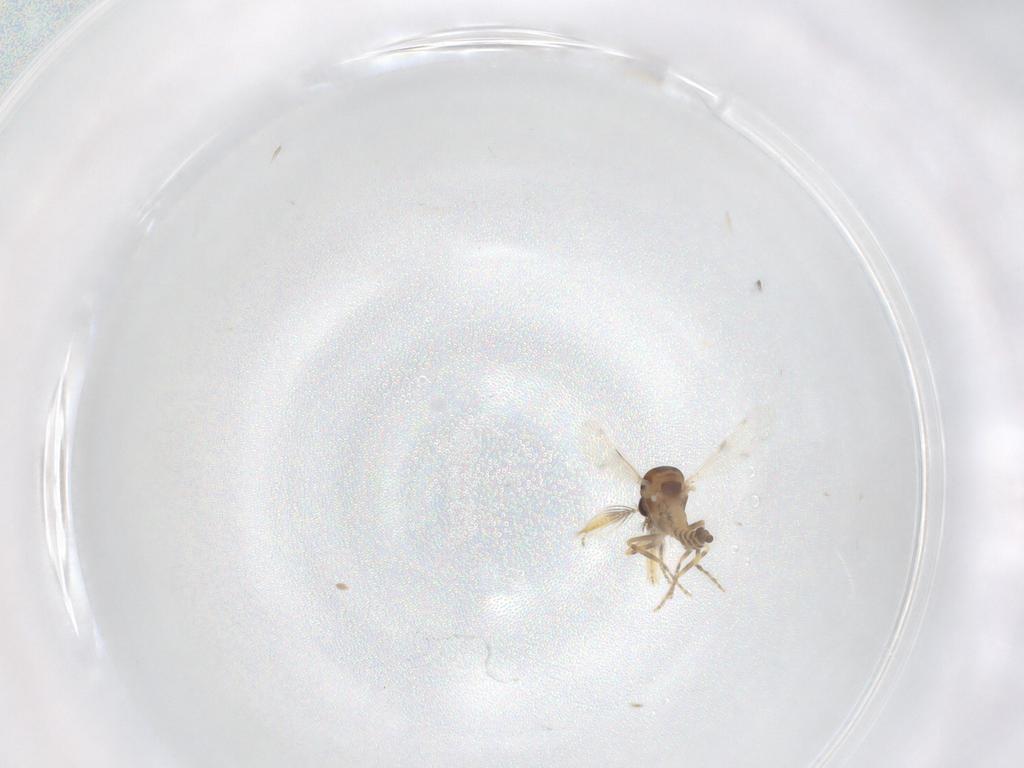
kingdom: Animalia
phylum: Arthropoda
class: Insecta
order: Diptera
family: Ceratopogonidae
